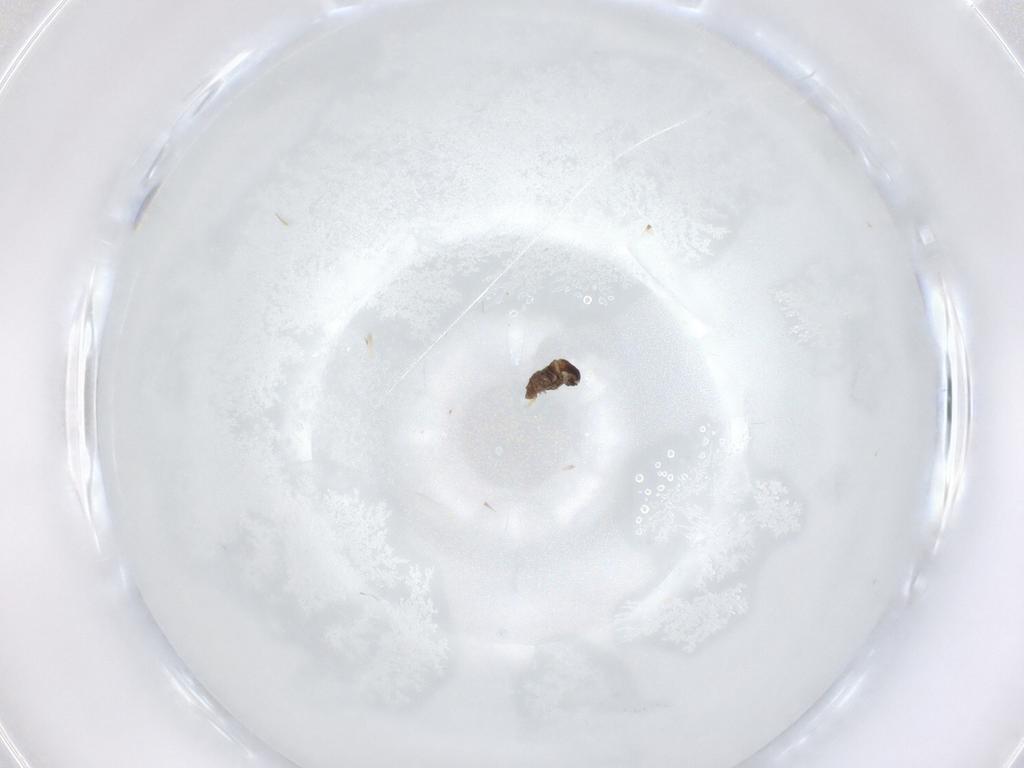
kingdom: Animalia
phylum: Arthropoda
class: Insecta
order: Diptera
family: Cecidomyiidae
